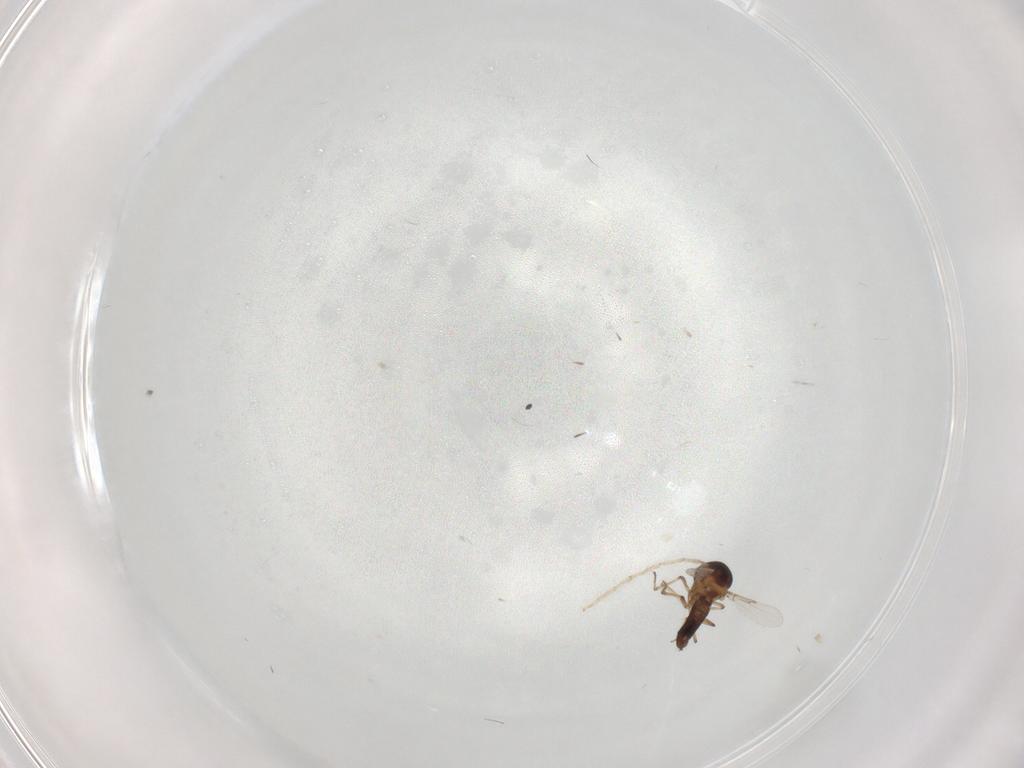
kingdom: Animalia
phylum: Arthropoda
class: Insecta
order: Diptera
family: Ceratopogonidae
